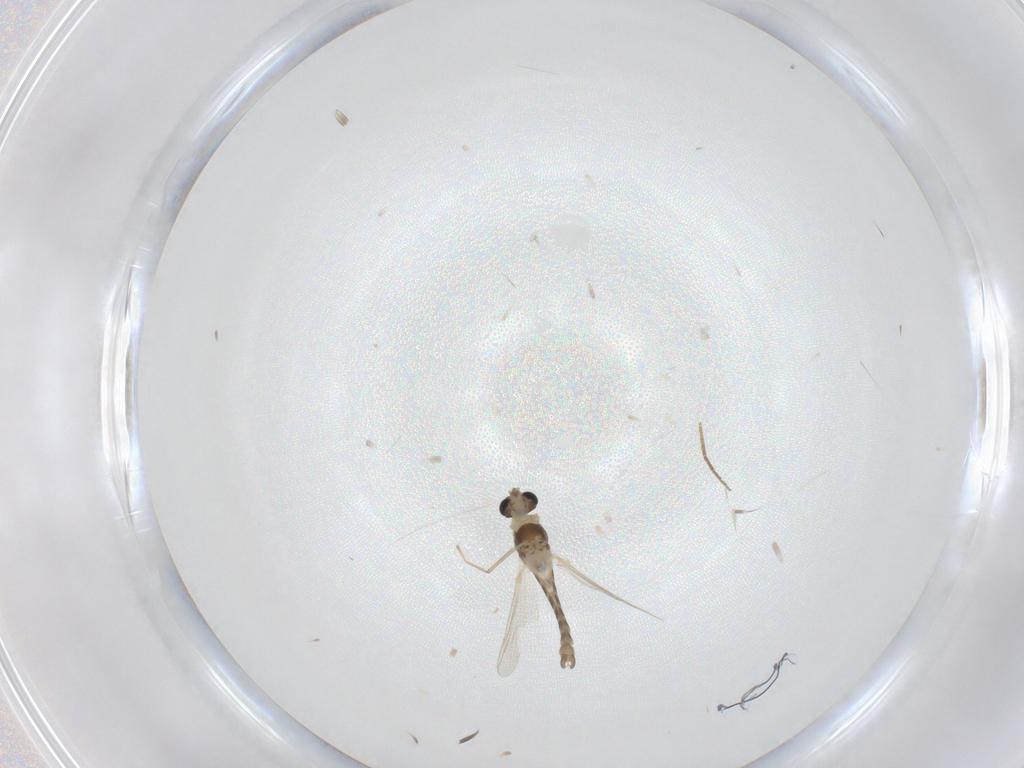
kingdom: Animalia
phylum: Arthropoda
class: Insecta
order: Diptera
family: Chironomidae
